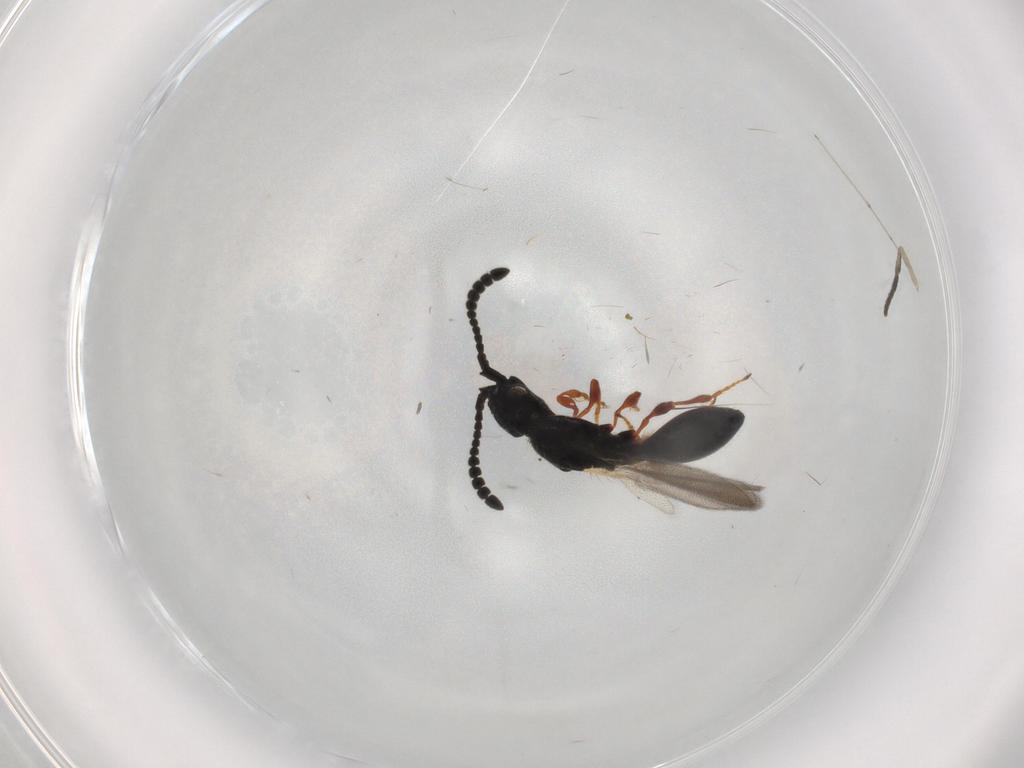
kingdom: Animalia
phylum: Arthropoda
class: Insecta
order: Hymenoptera
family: Diapriidae
